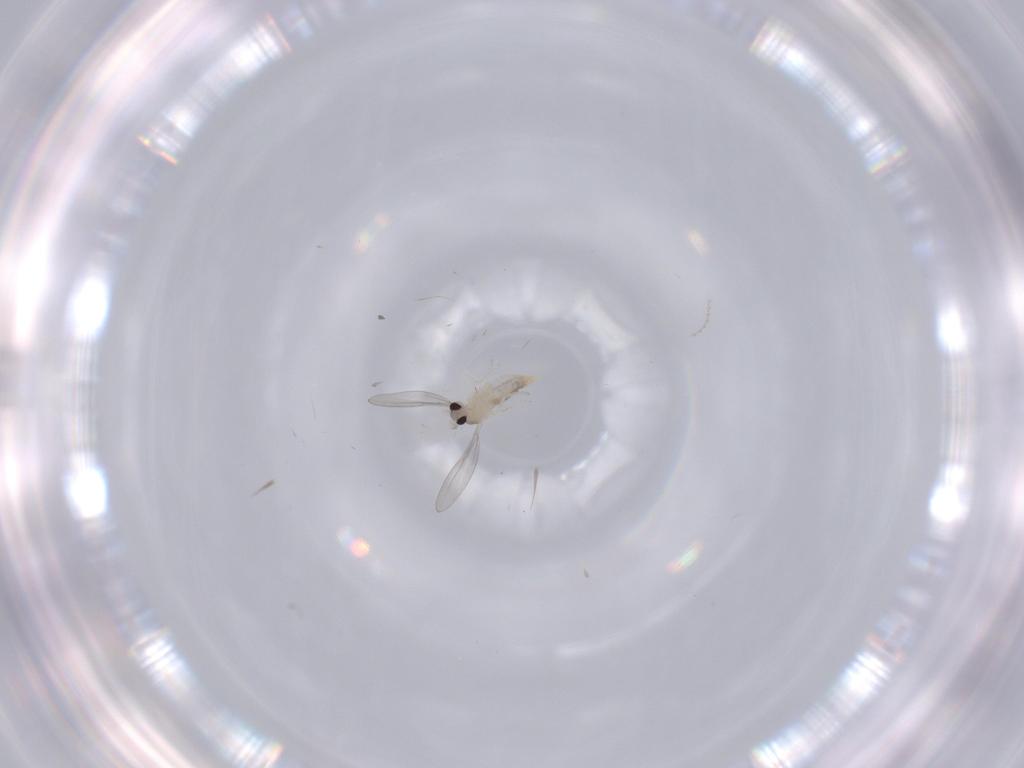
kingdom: Animalia
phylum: Arthropoda
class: Insecta
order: Diptera
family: Cecidomyiidae
